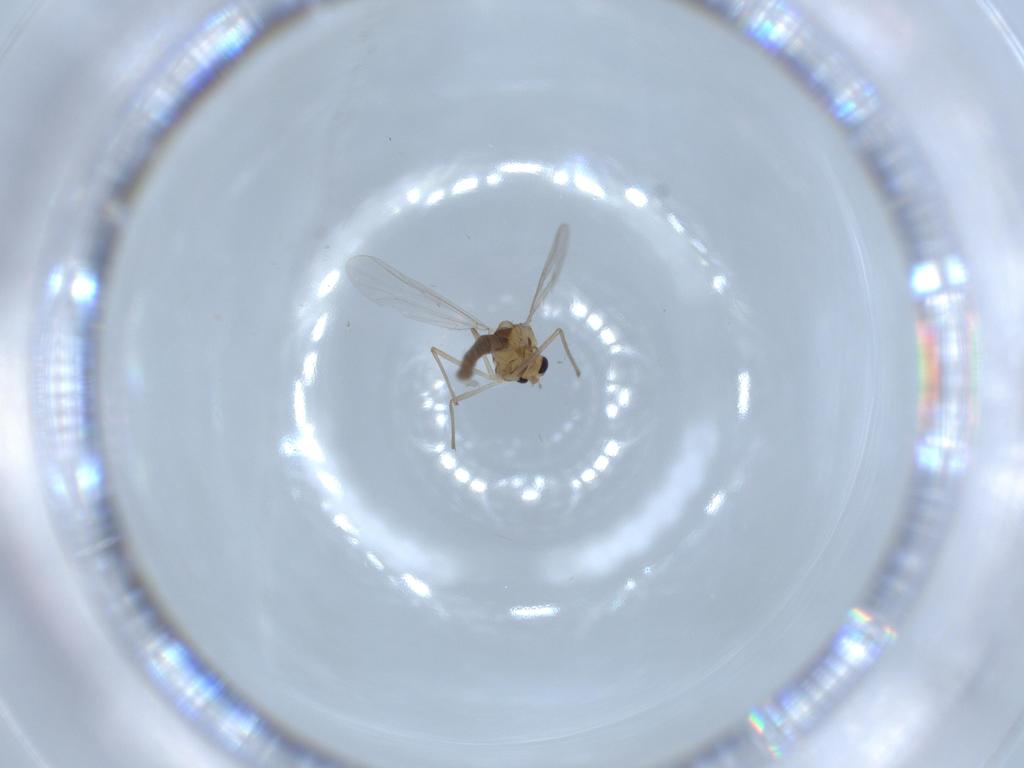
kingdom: Animalia
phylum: Arthropoda
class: Insecta
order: Diptera
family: Chironomidae
